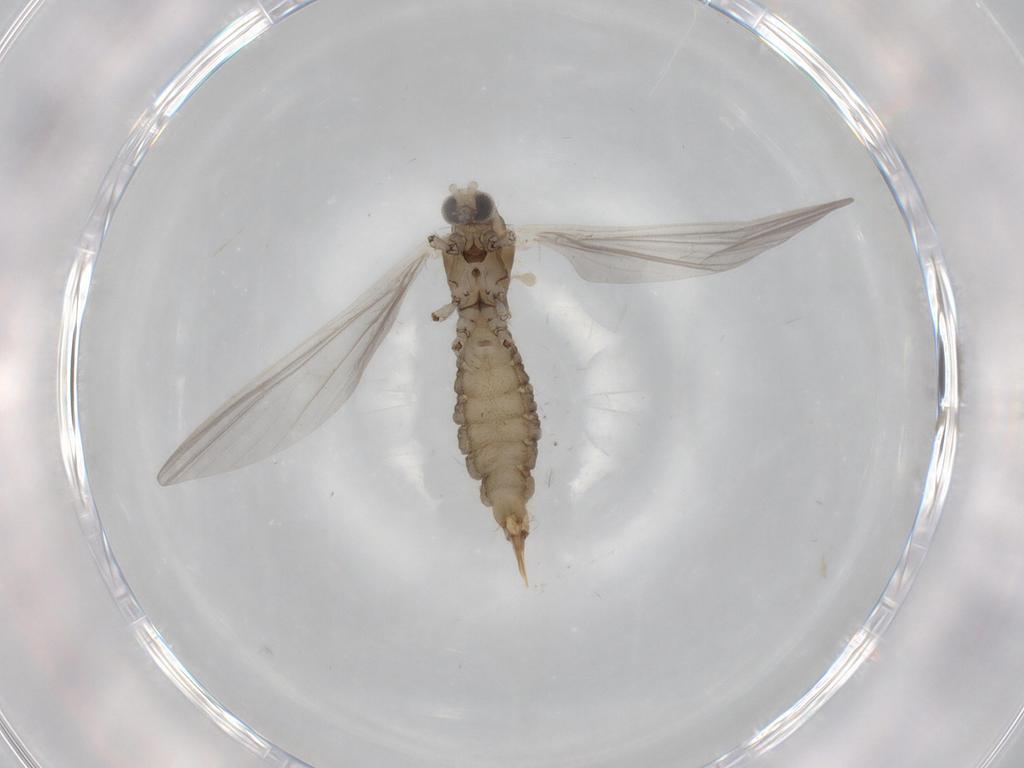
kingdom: Animalia
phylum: Arthropoda
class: Insecta
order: Diptera
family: Limoniidae
